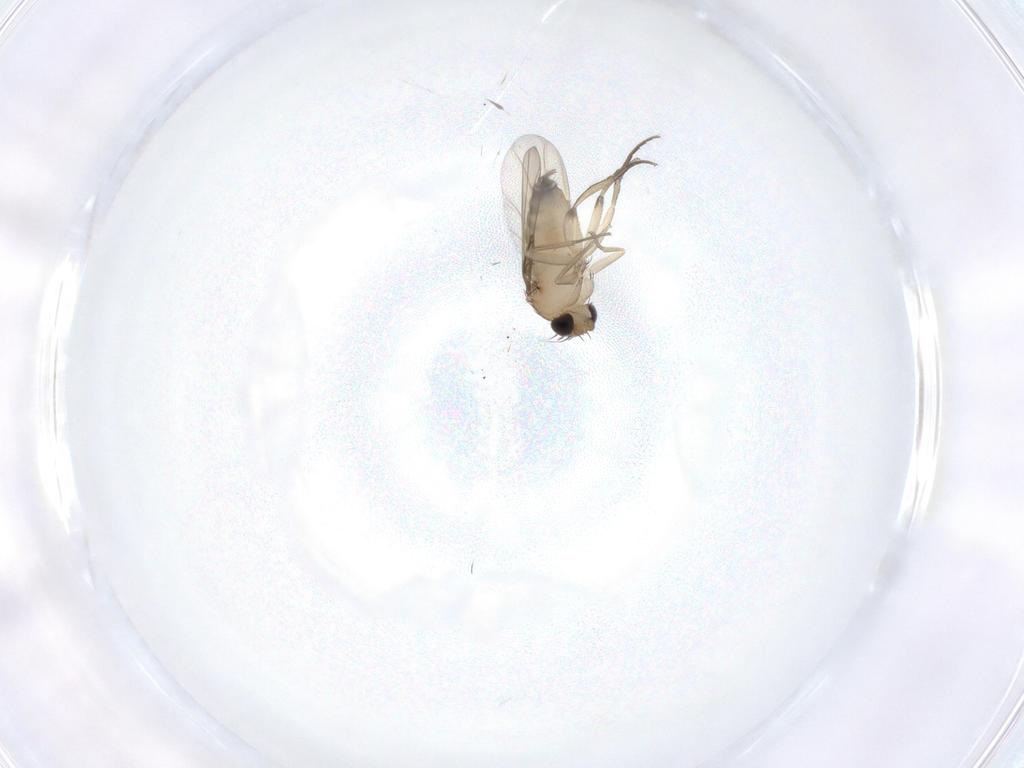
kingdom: Animalia
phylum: Arthropoda
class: Insecta
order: Diptera
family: Phoridae
